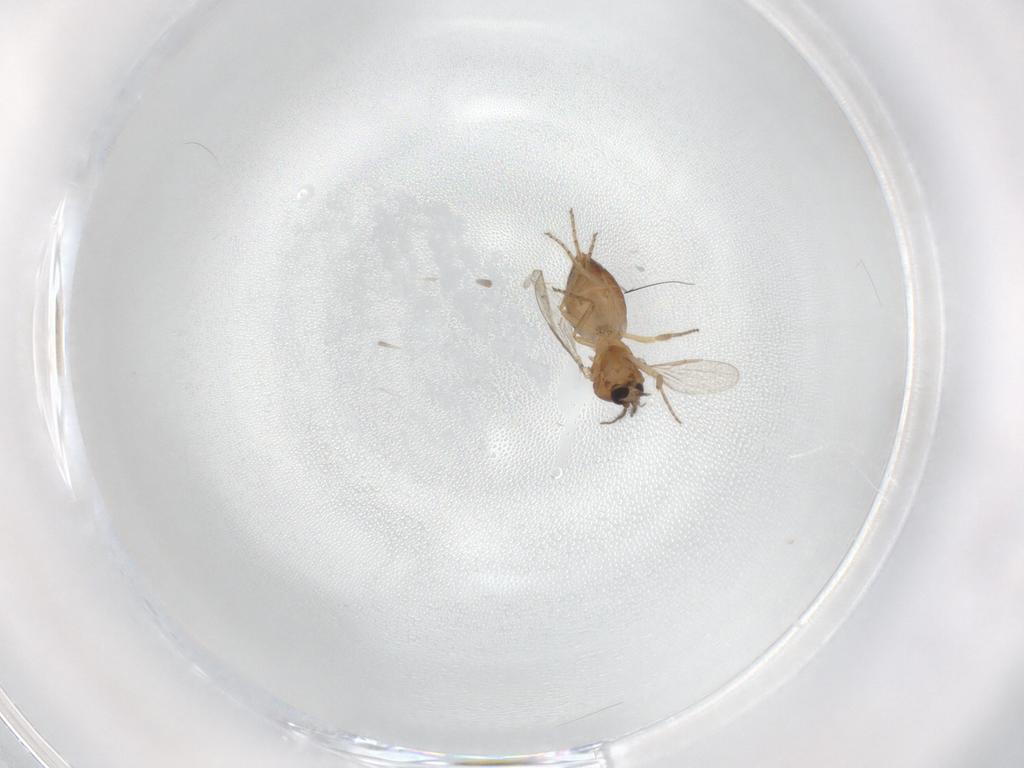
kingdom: Animalia
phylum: Arthropoda
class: Insecta
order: Diptera
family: Ceratopogonidae
